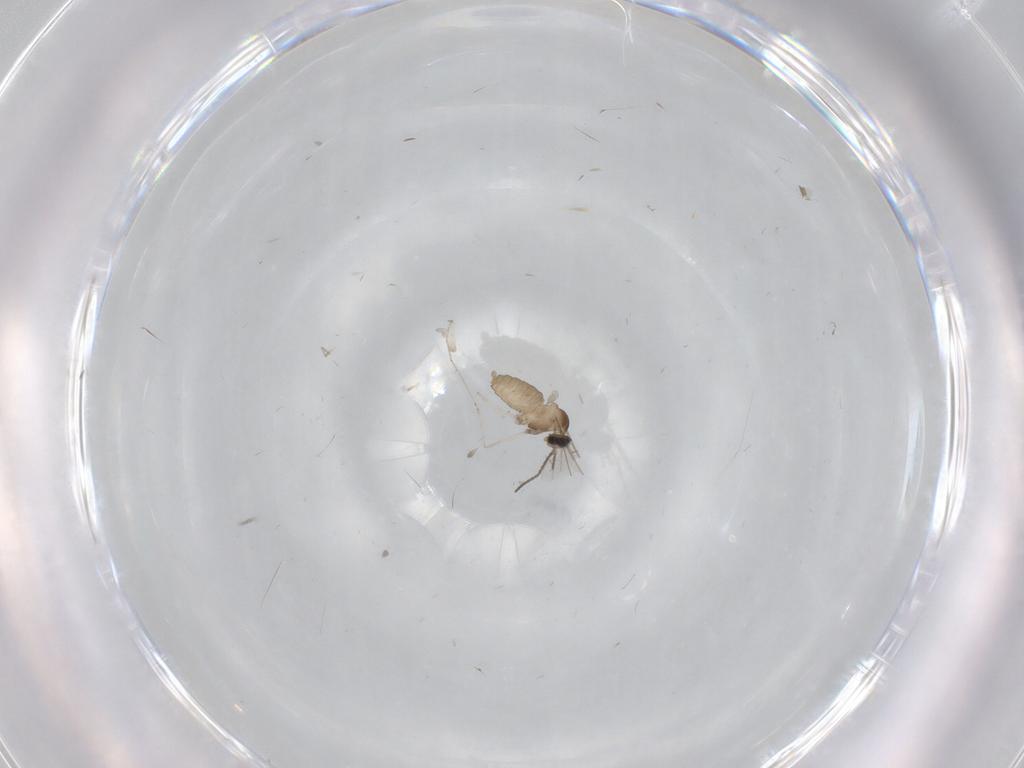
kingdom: Animalia
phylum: Arthropoda
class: Insecta
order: Diptera
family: Cecidomyiidae
